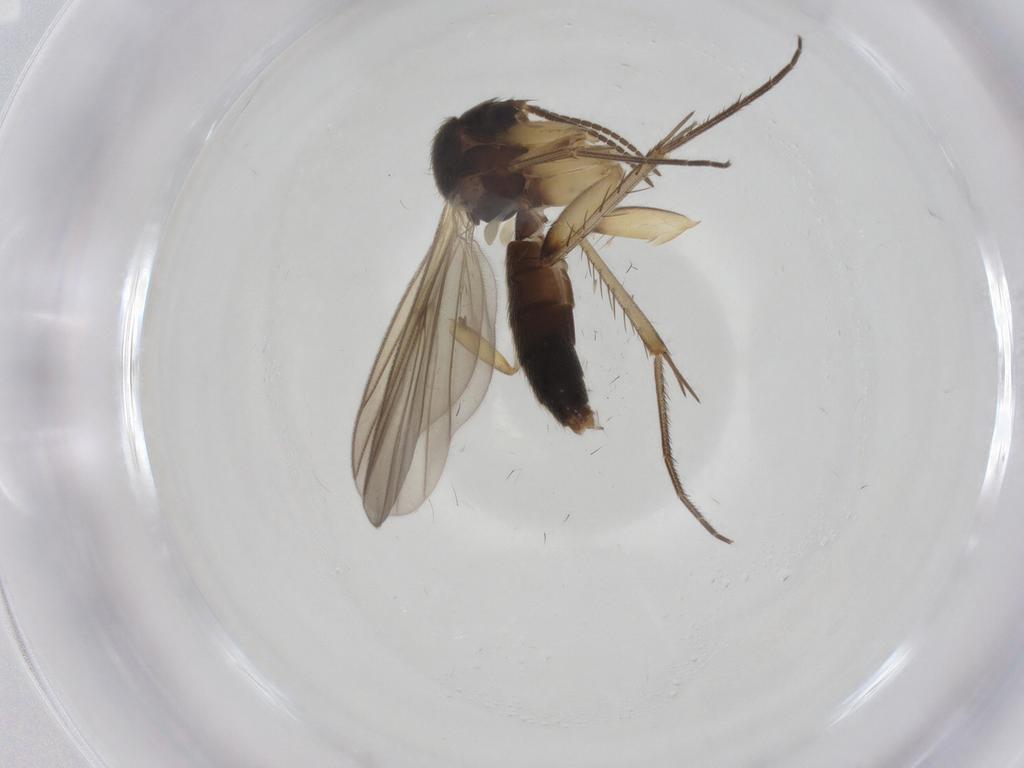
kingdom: Animalia
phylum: Arthropoda
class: Insecta
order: Diptera
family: Mycetophilidae
